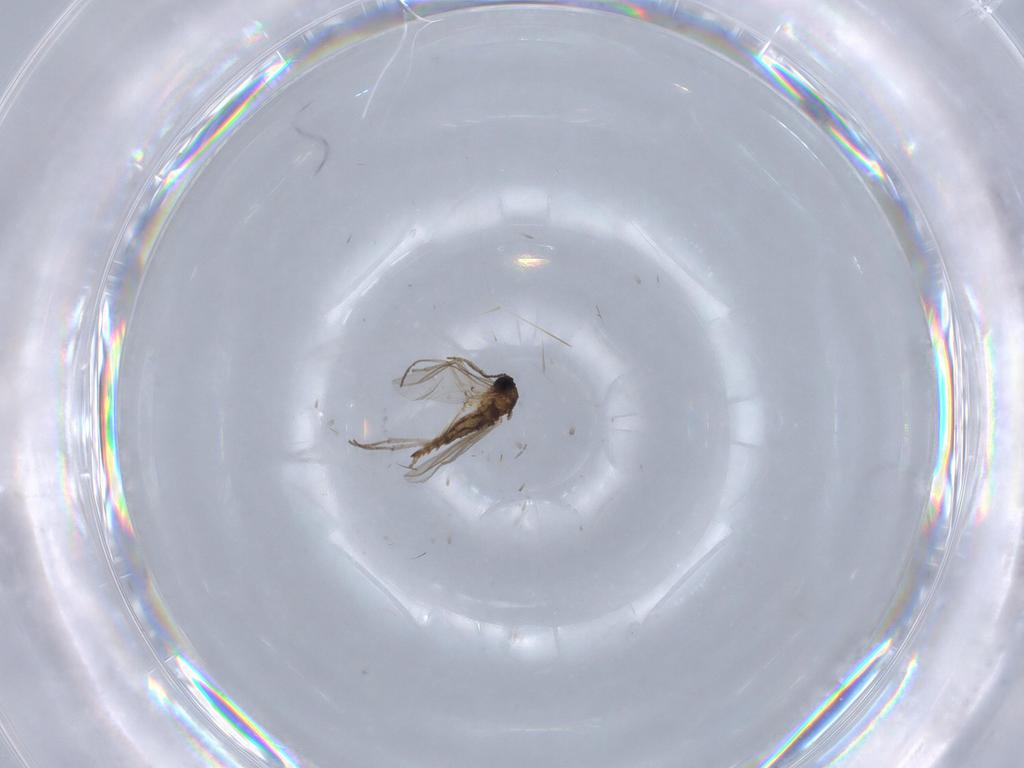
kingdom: Animalia
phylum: Arthropoda
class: Insecta
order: Diptera
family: Sciaridae
